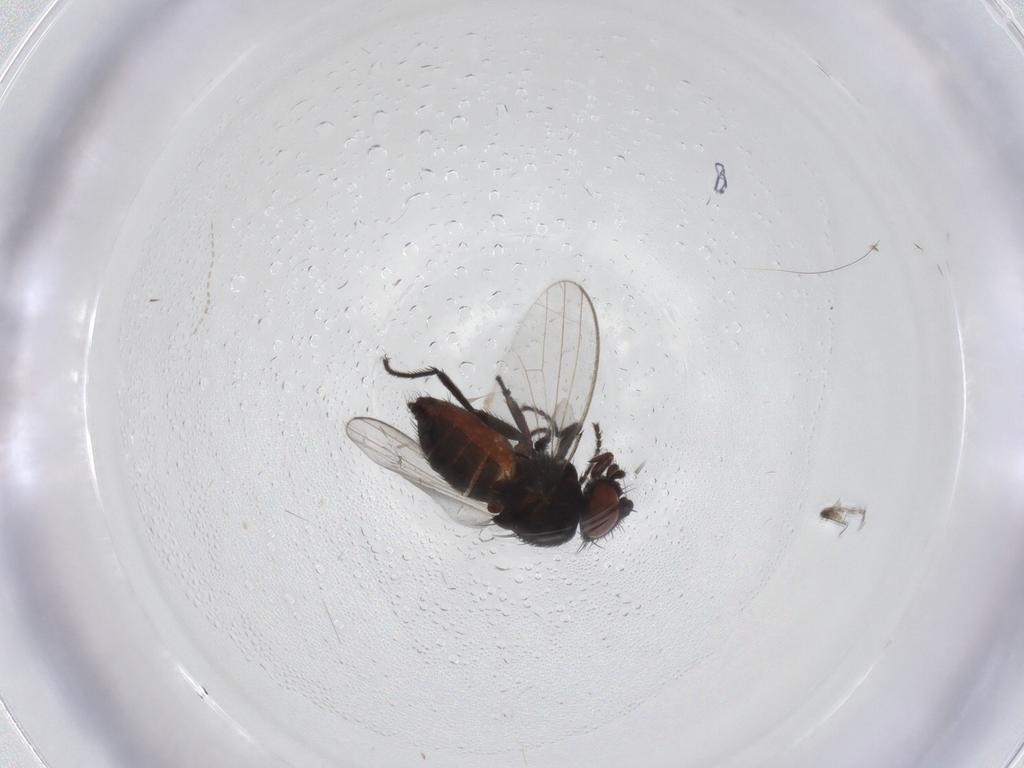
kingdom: Animalia
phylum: Arthropoda
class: Insecta
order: Diptera
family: Milichiidae
